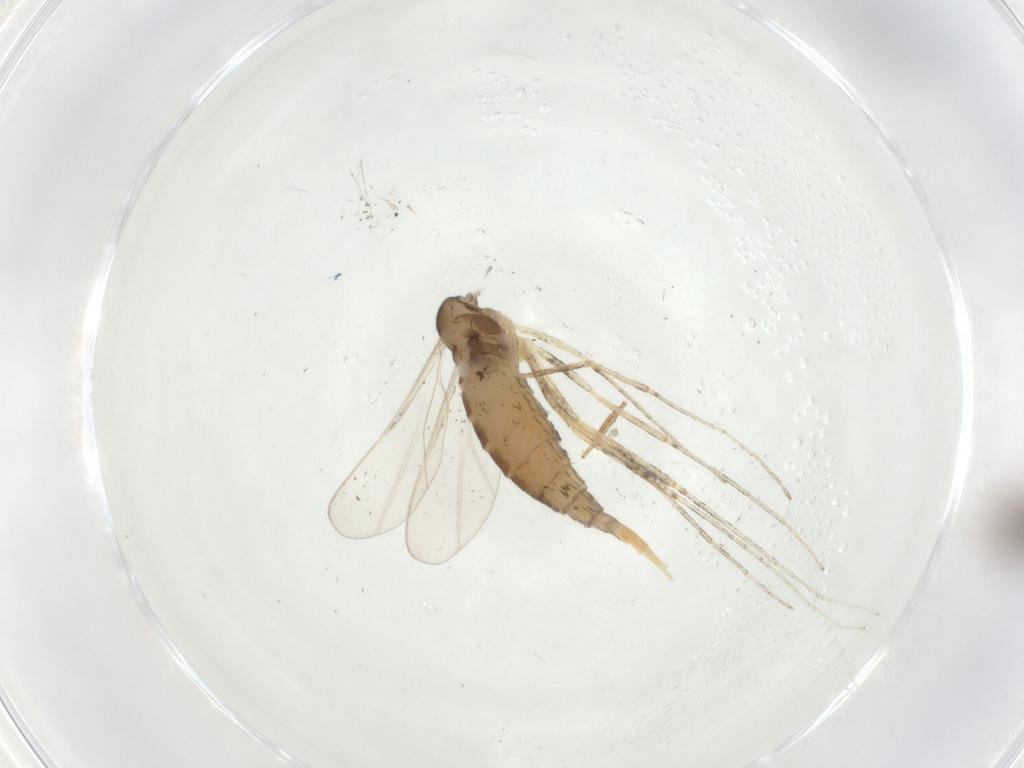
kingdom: Animalia
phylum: Arthropoda
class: Insecta
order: Diptera
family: Cecidomyiidae
